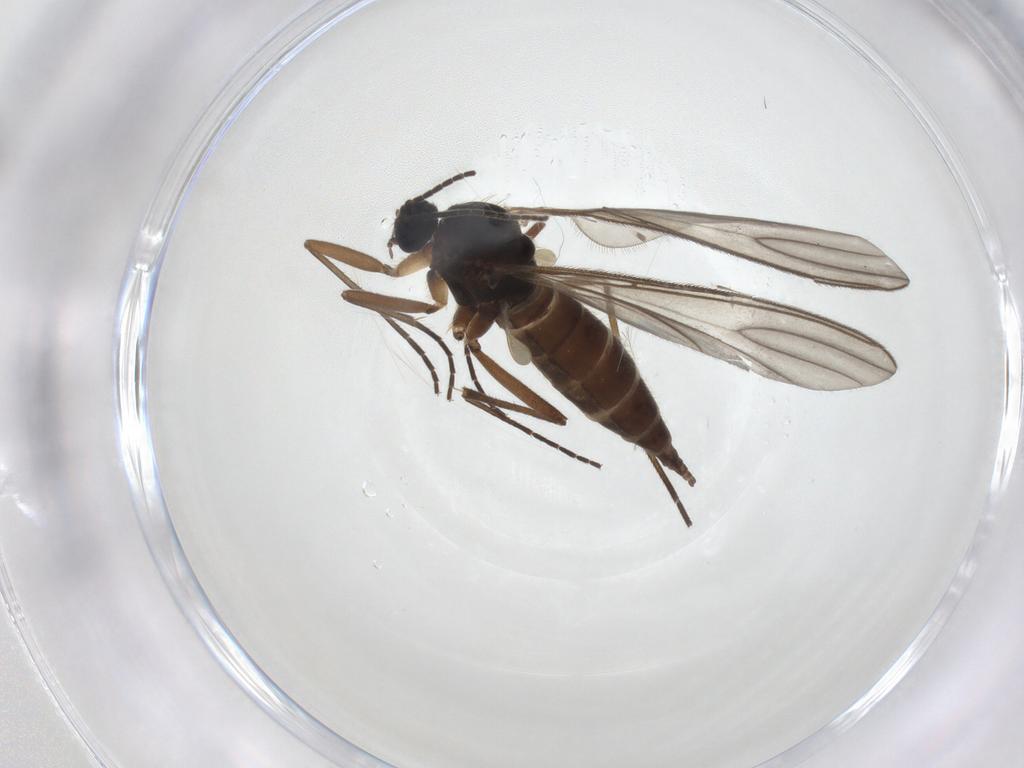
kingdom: Animalia
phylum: Arthropoda
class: Insecta
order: Diptera
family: Sciaridae
